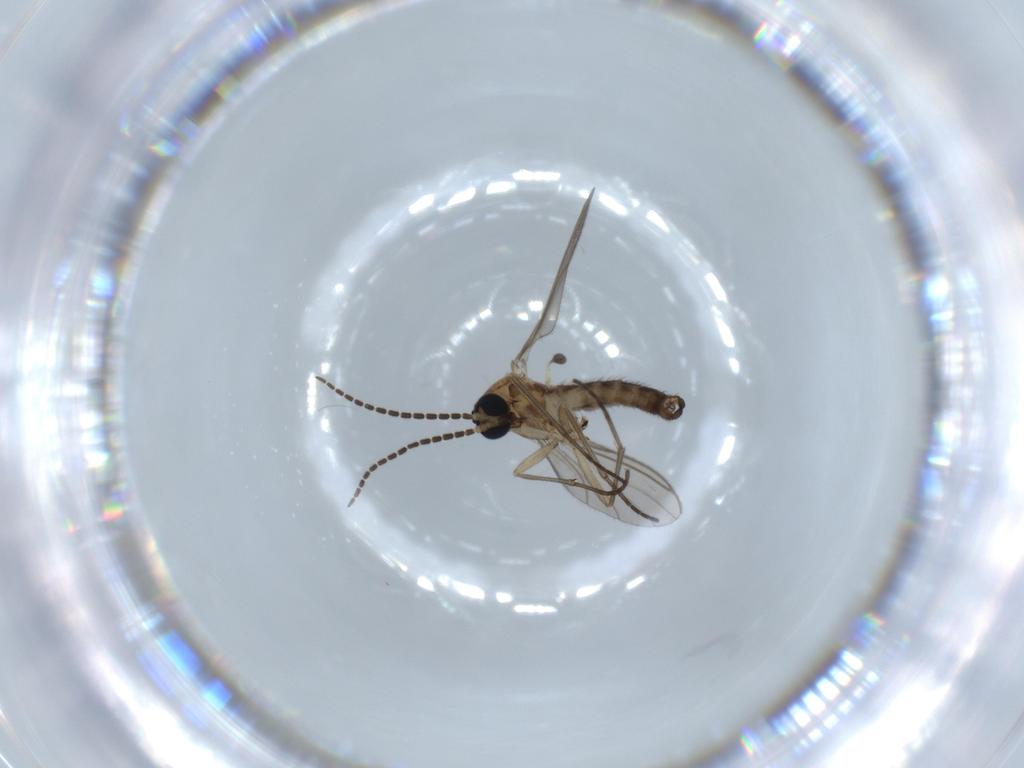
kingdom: Animalia
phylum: Arthropoda
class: Insecta
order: Diptera
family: Sciaridae
